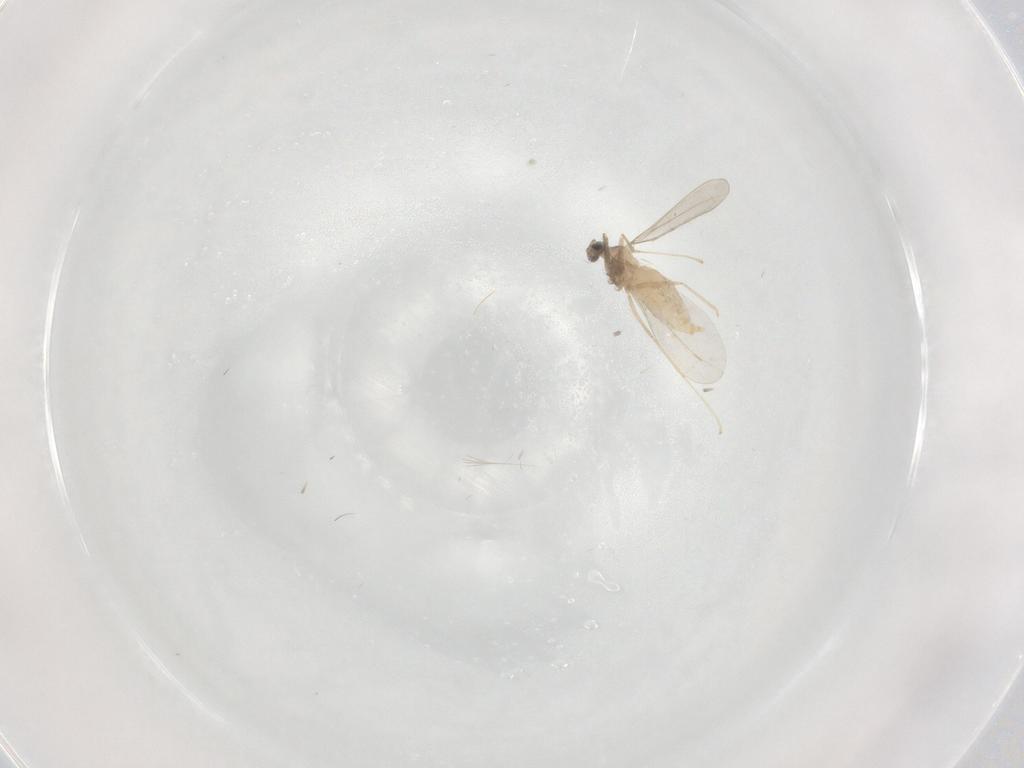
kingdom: Animalia
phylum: Arthropoda
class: Insecta
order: Diptera
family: Cecidomyiidae
